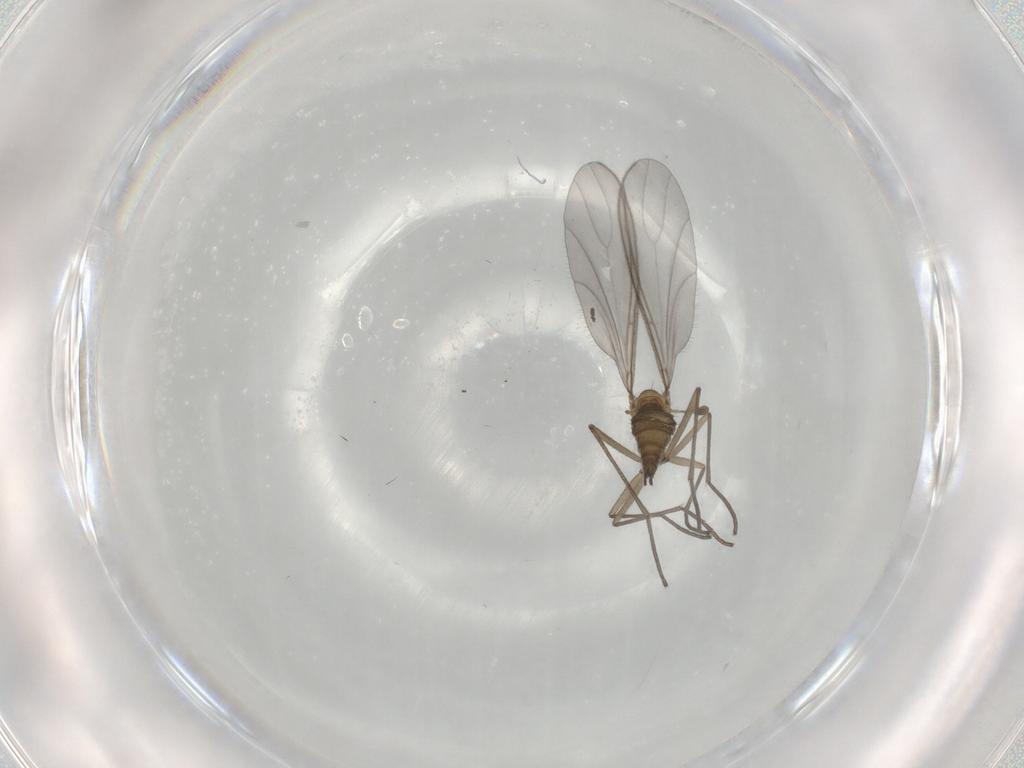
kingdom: Animalia
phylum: Arthropoda
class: Insecta
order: Diptera
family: Sciaridae
